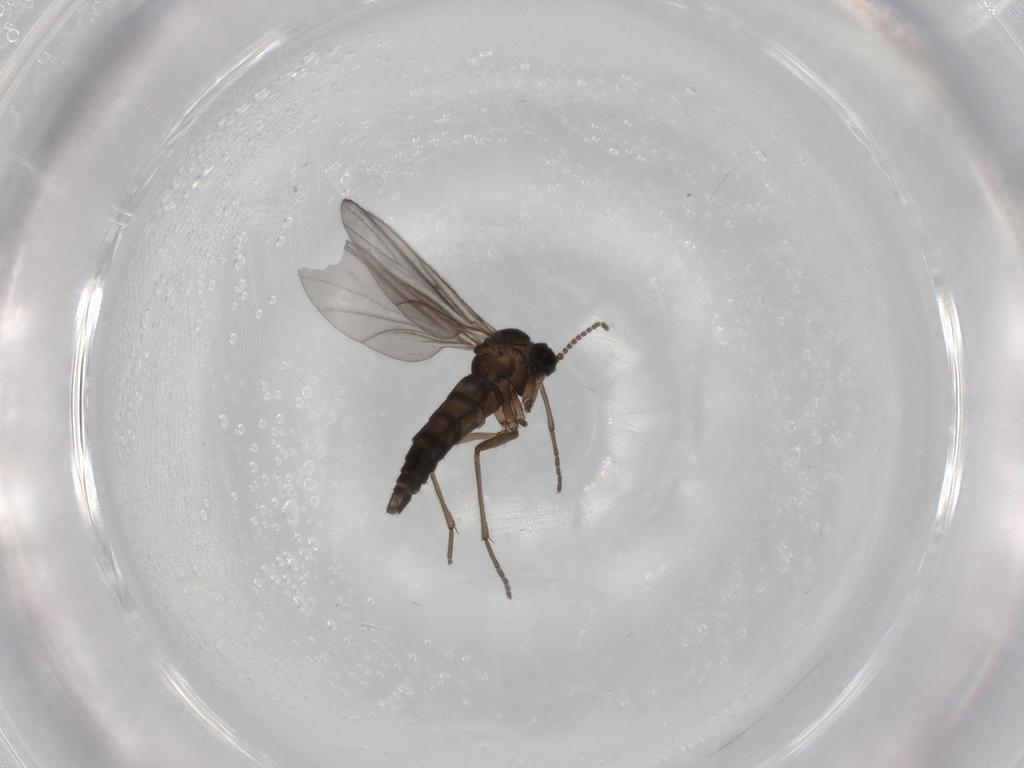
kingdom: Animalia
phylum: Arthropoda
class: Insecta
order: Diptera
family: Sciaridae
